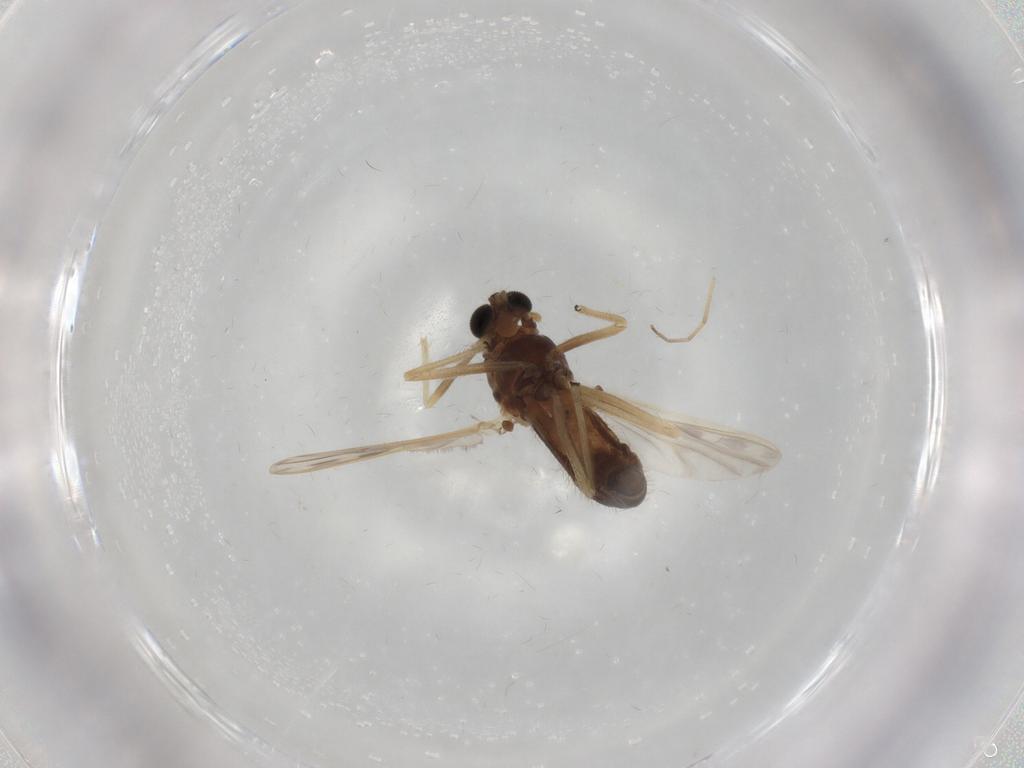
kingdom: Animalia
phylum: Arthropoda
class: Insecta
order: Diptera
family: Chironomidae
